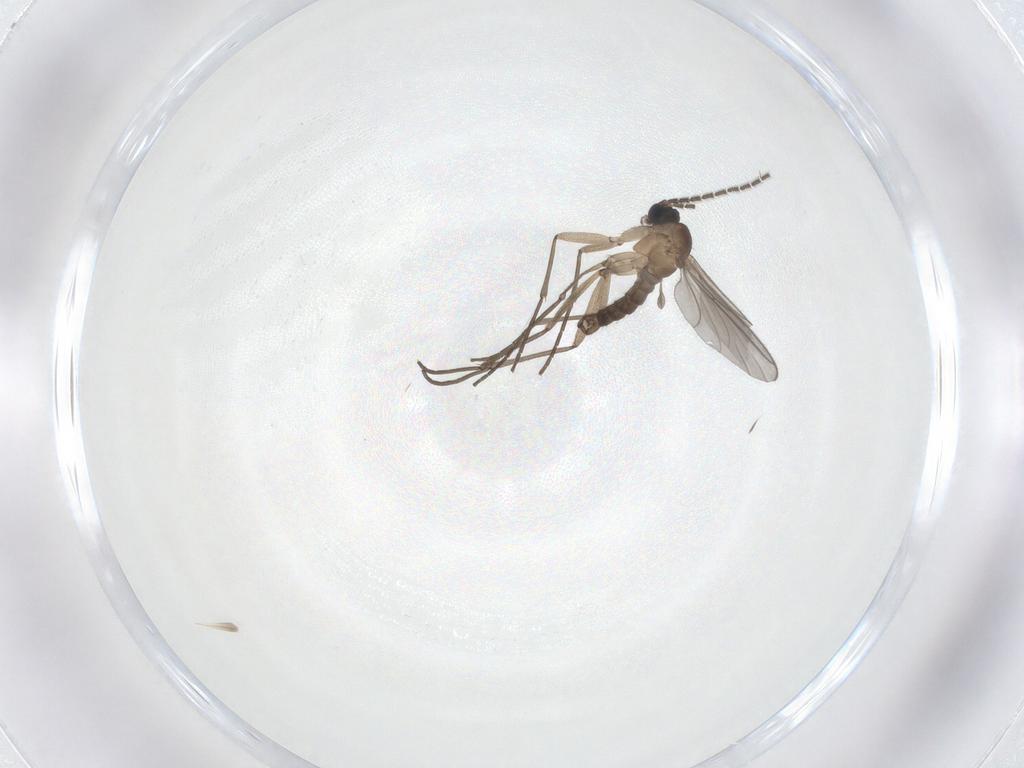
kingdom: Animalia
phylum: Arthropoda
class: Insecta
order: Diptera
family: Sciaridae
